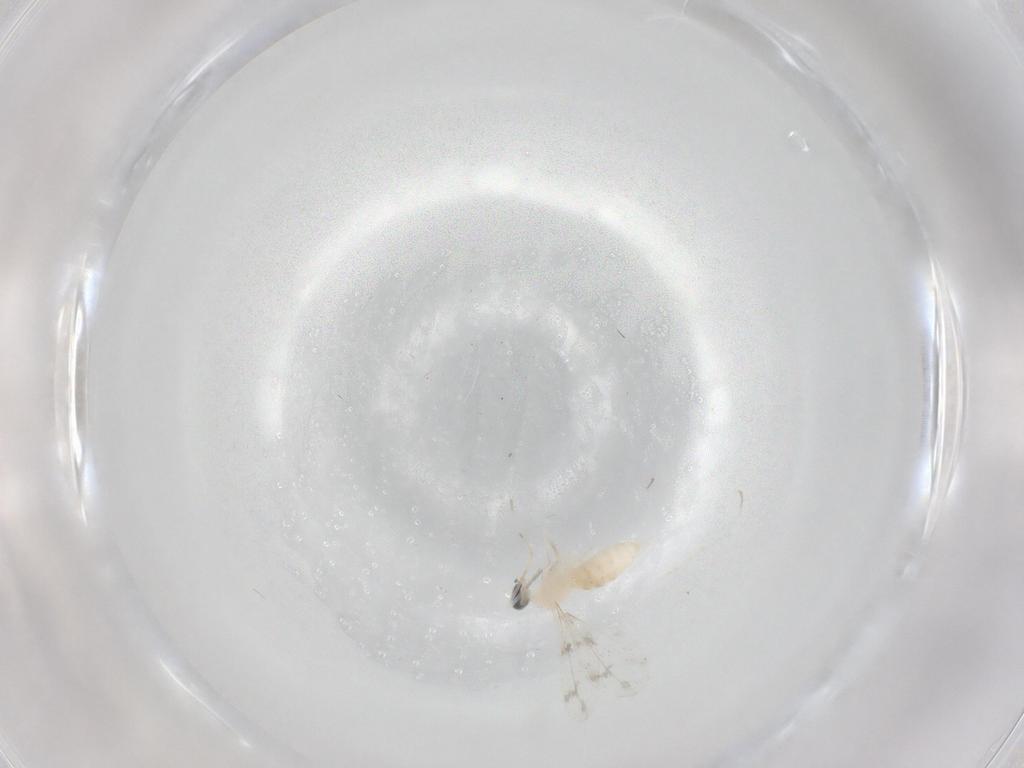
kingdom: Animalia
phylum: Arthropoda
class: Insecta
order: Diptera
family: Cecidomyiidae
